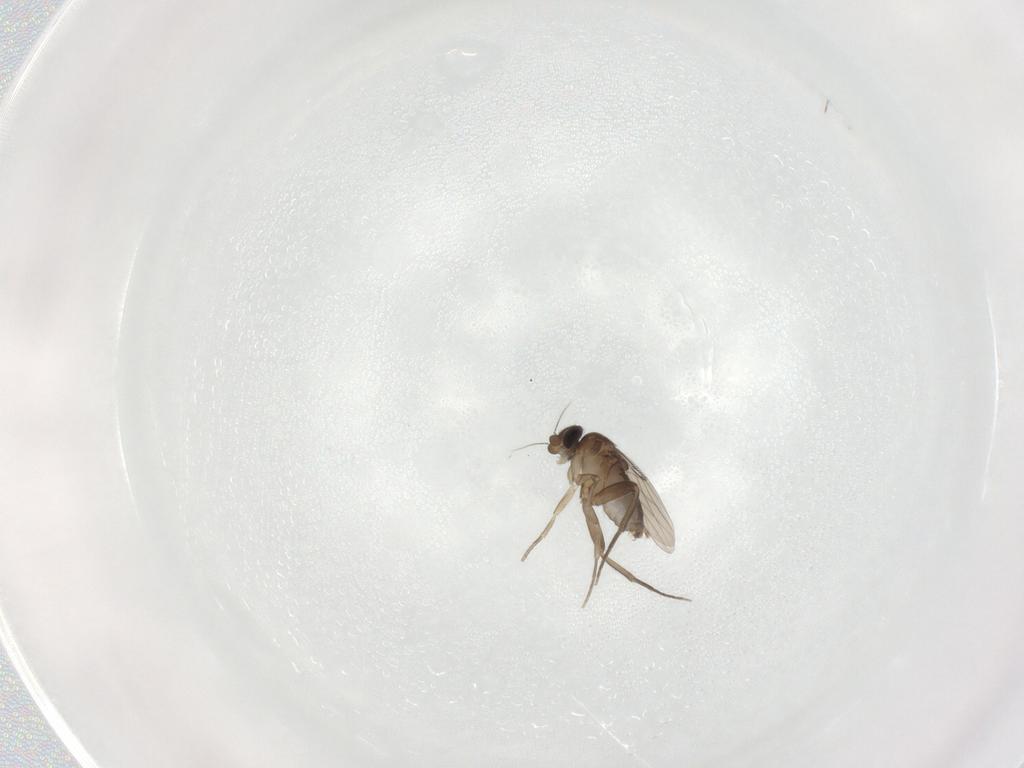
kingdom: Animalia
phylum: Arthropoda
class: Insecta
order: Diptera
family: Phoridae
